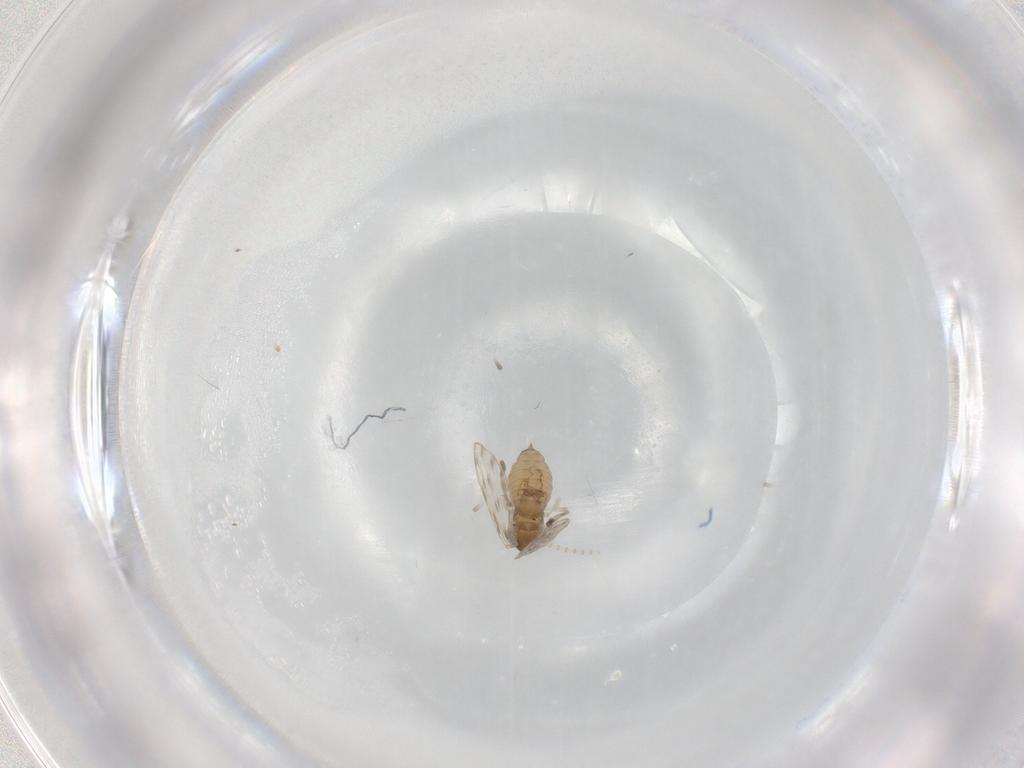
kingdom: Animalia
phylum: Arthropoda
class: Insecta
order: Diptera
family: Psychodidae
